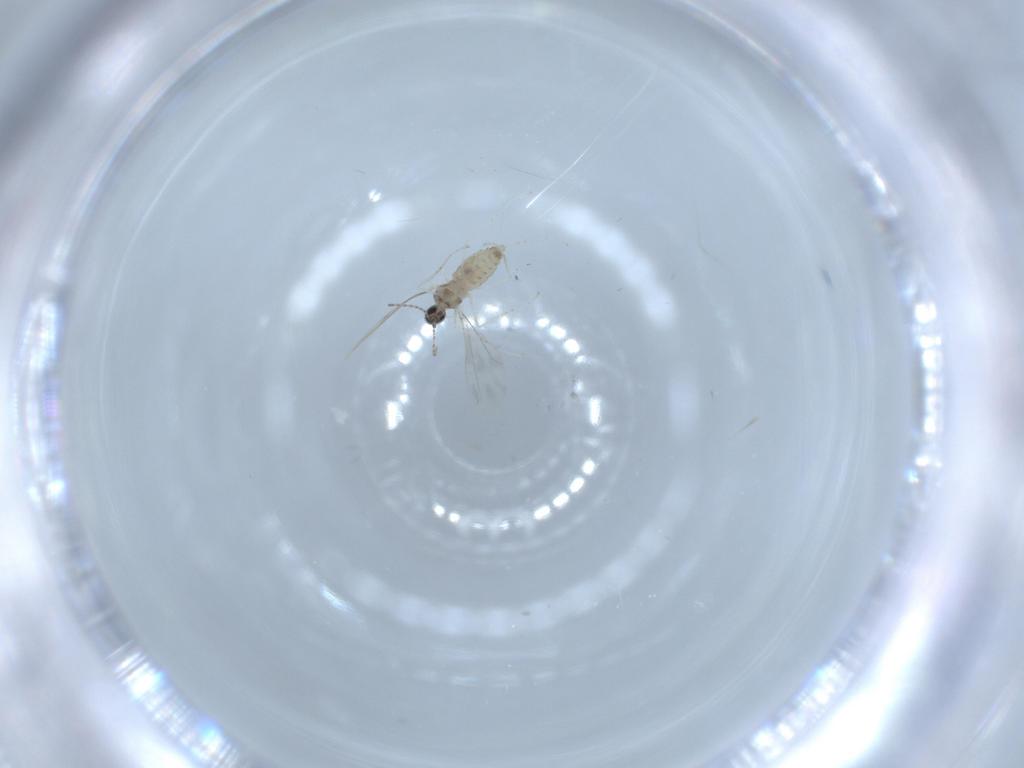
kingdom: Animalia
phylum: Arthropoda
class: Insecta
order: Diptera
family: Cecidomyiidae
